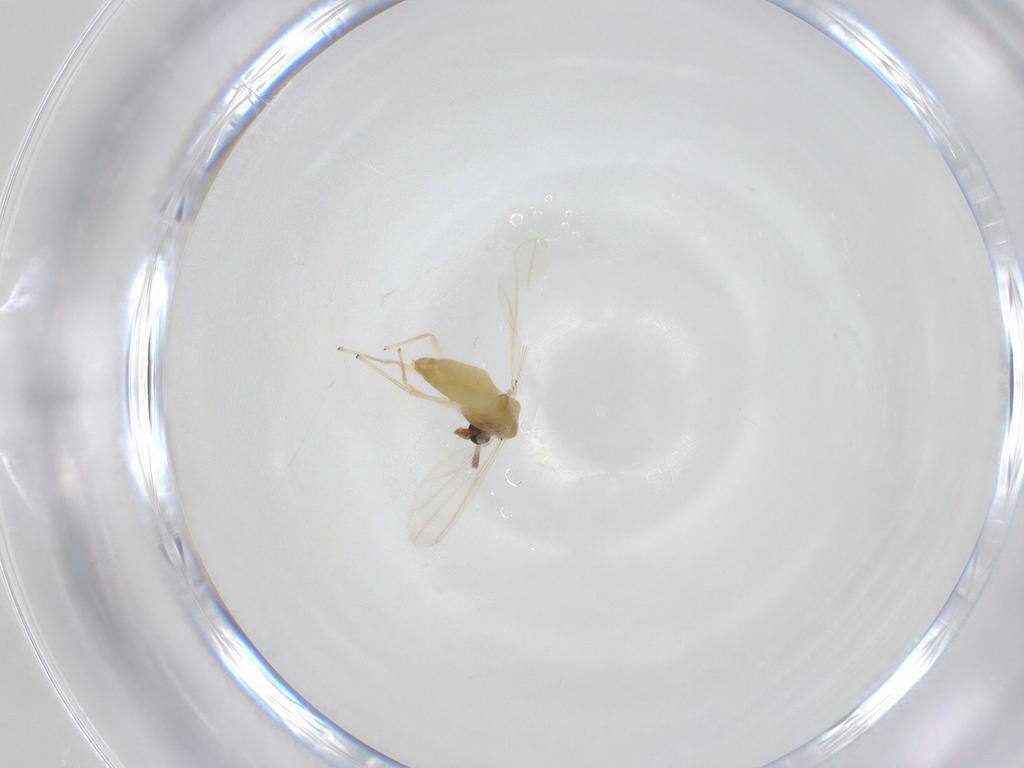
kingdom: Animalia
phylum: Arthropoda
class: Insecta
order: Diptera
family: Chironomidae
